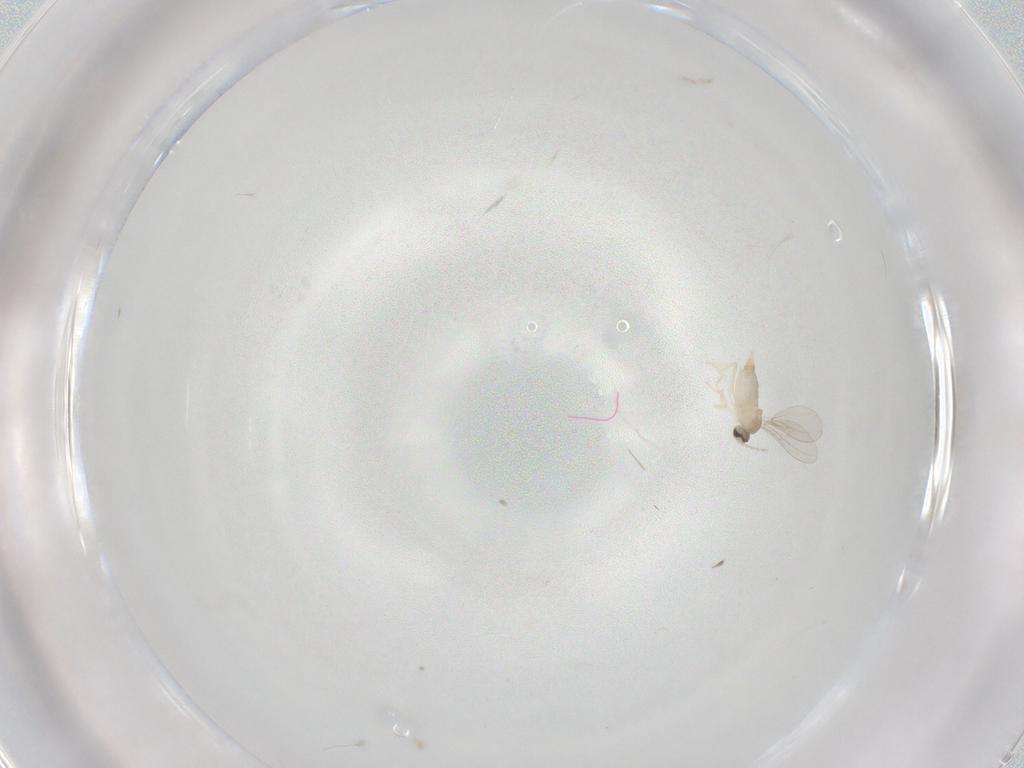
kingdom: Animalia
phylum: Arthropoda
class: Insecta
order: Diptera
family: Cecidomyiidae
